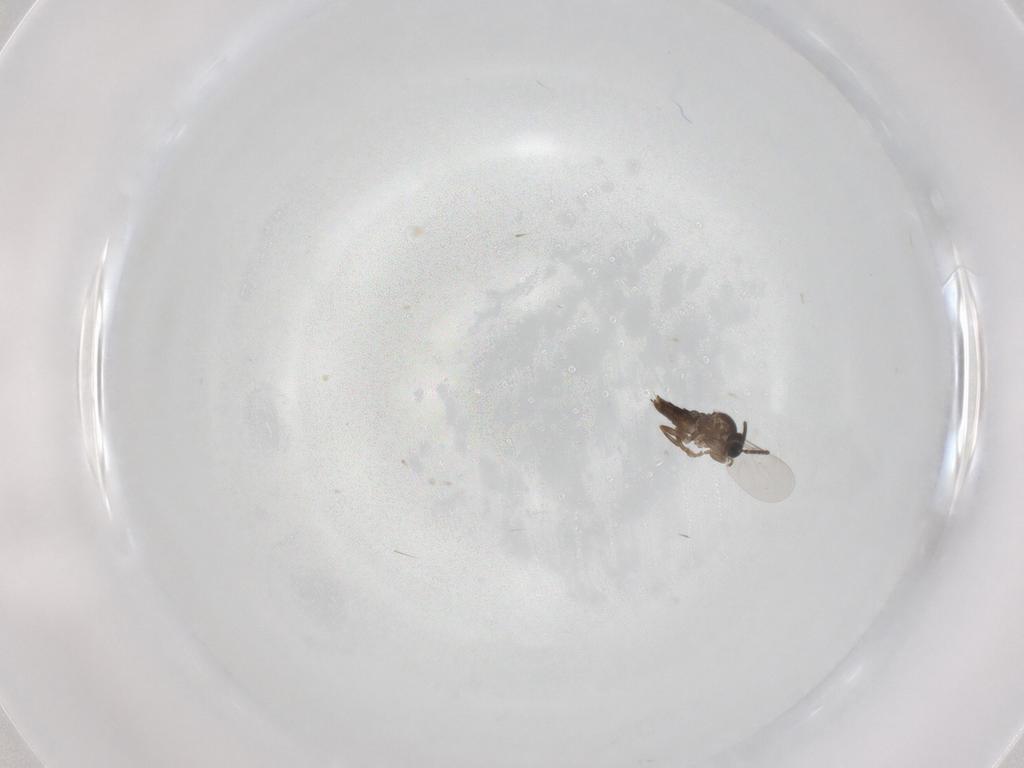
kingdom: Animalia
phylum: Arthropoda
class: Insecta
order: Diptera
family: Scatopsidae
